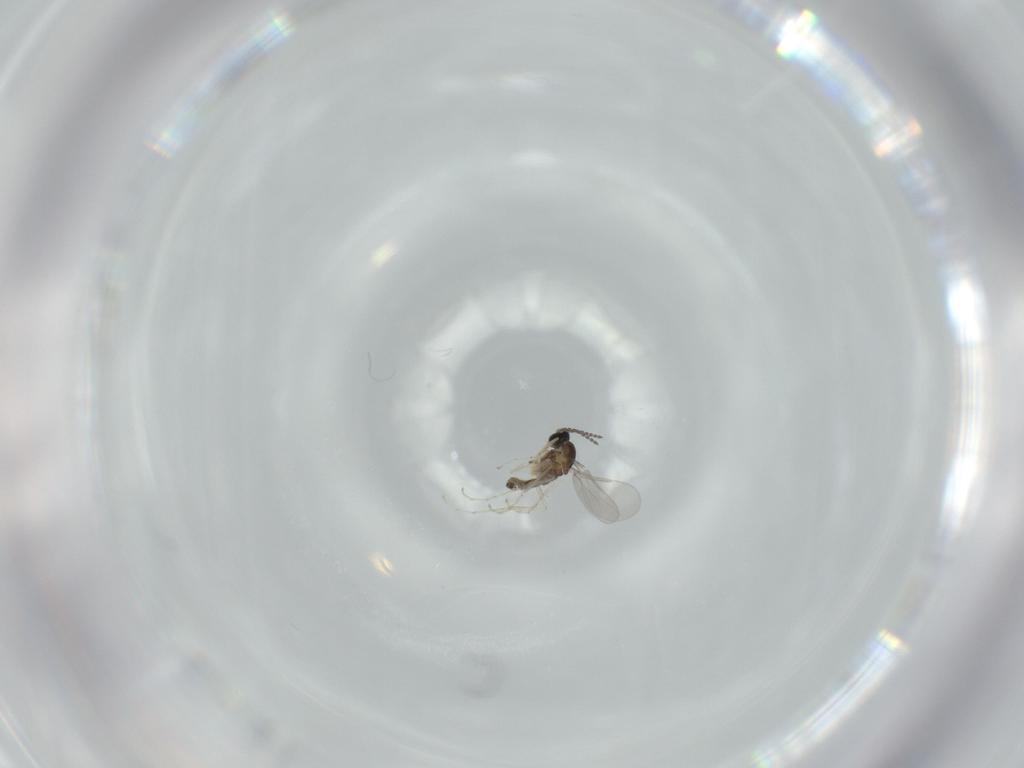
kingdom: Animalia
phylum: Arthropoda
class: Insecta
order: Diptera
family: Cecidomyiidae
